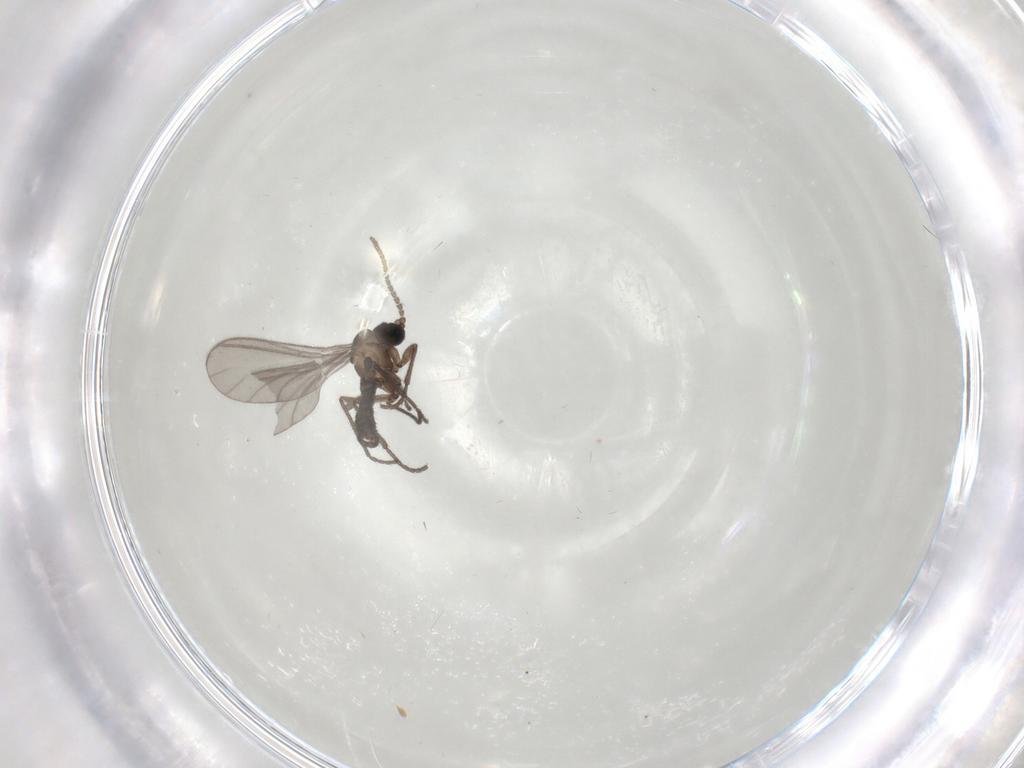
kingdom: Animalia
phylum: Arthropoda
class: Insecta
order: Diptera
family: Sciaridae
